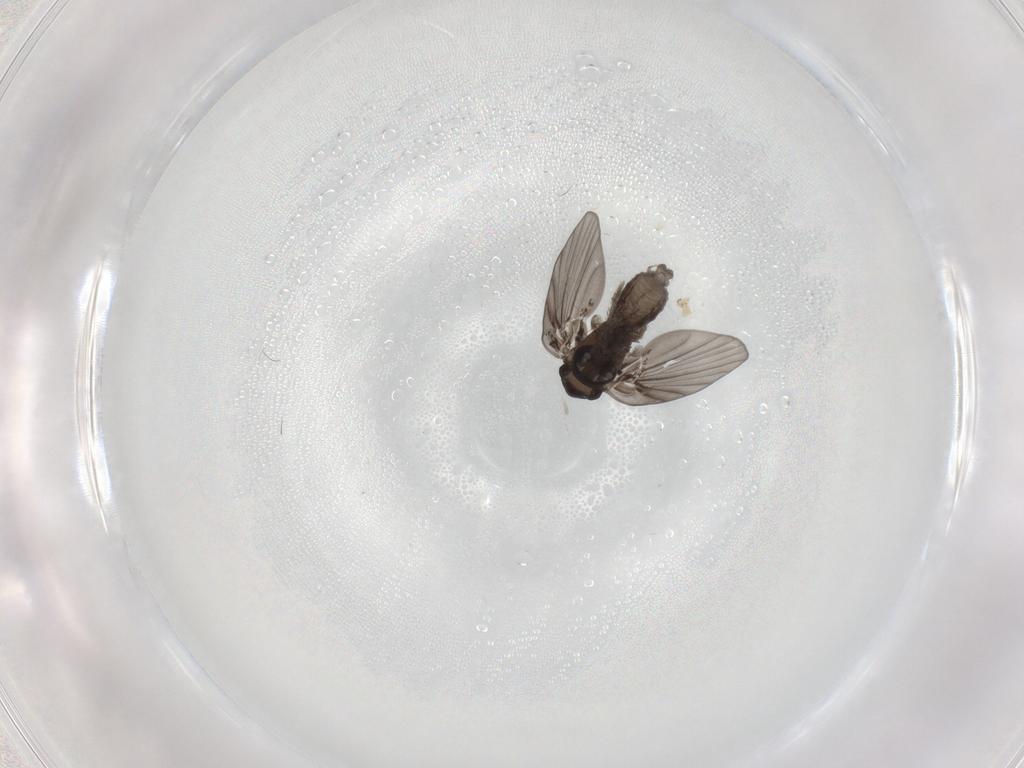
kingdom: Animalia
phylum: Arthropoda
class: Insecta
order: Diptera
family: Psychodidae
